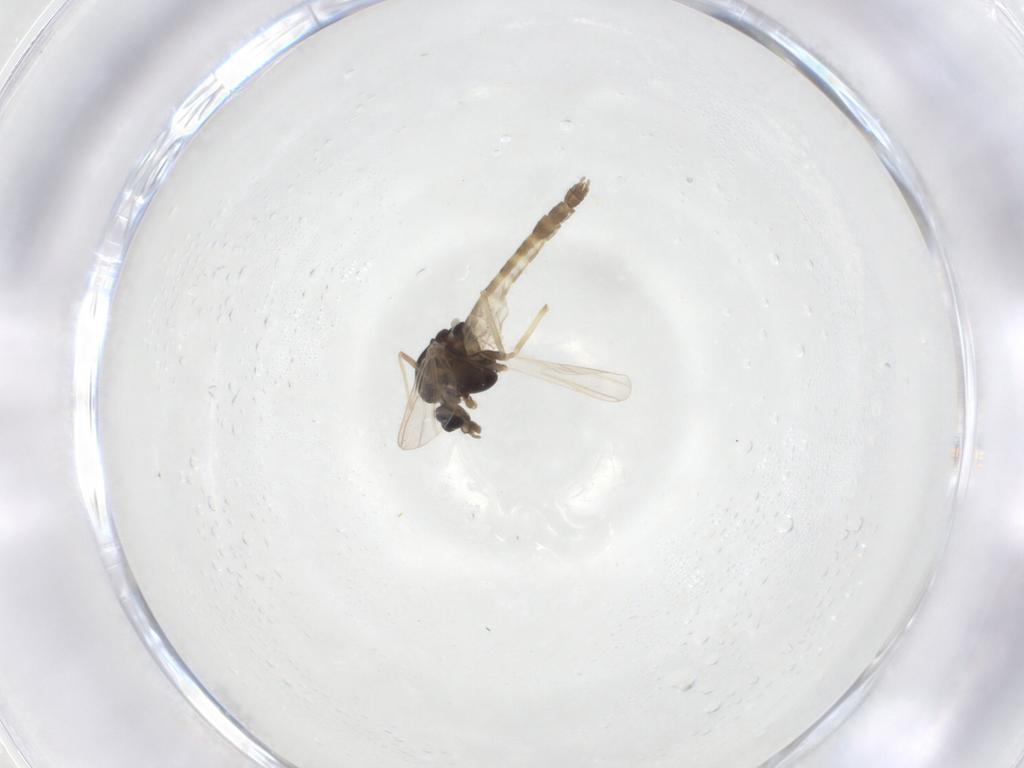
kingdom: Animalia
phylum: Arthropoda
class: Insecta
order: Diptera
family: Chironomidae
